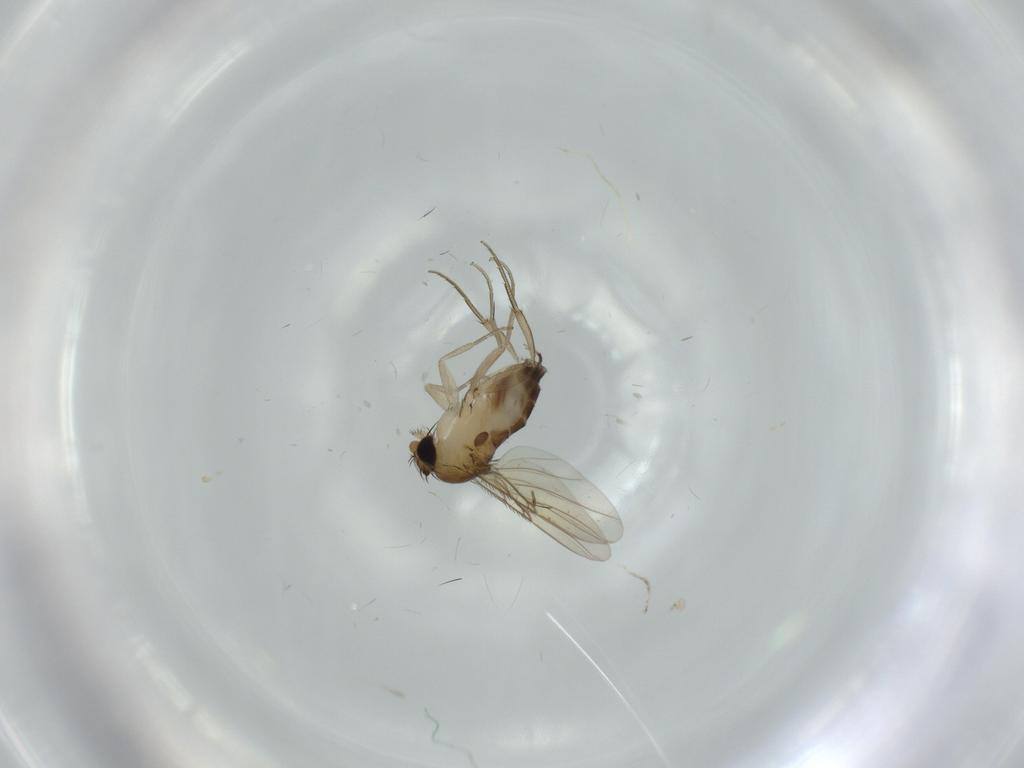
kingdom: Animalia
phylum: Arthropoda
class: Insecta
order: Diptera
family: Phoridae
